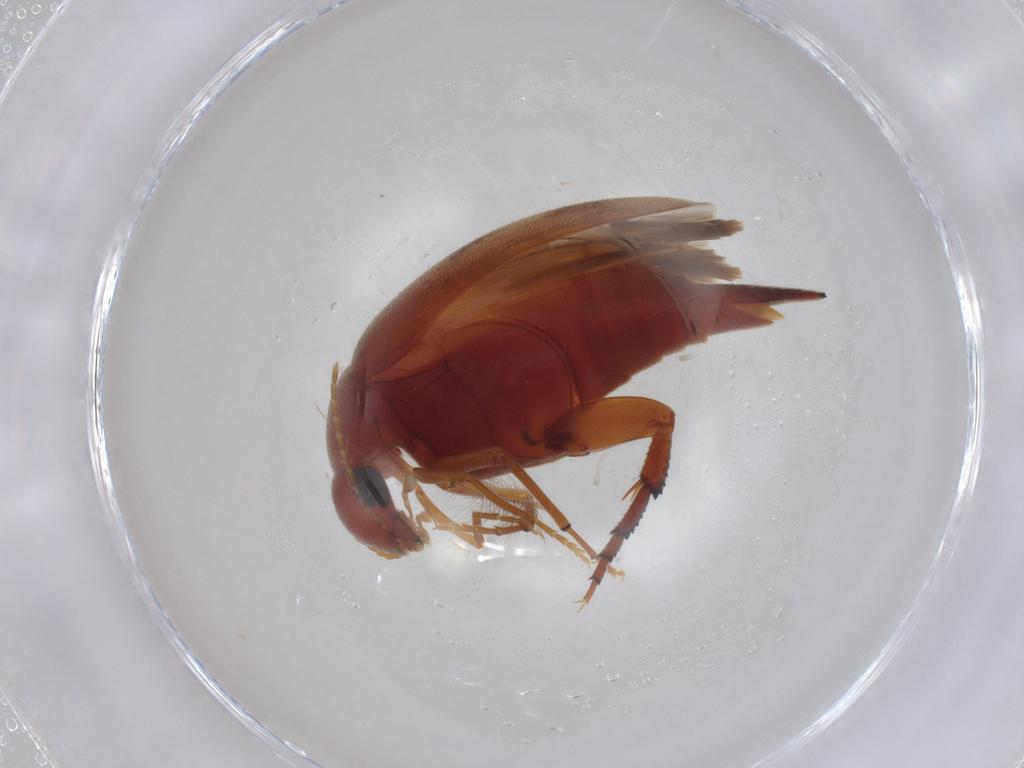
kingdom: Animalia
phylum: Arthropoda
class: Insecta
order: Coleoptera
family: Mordellidae
